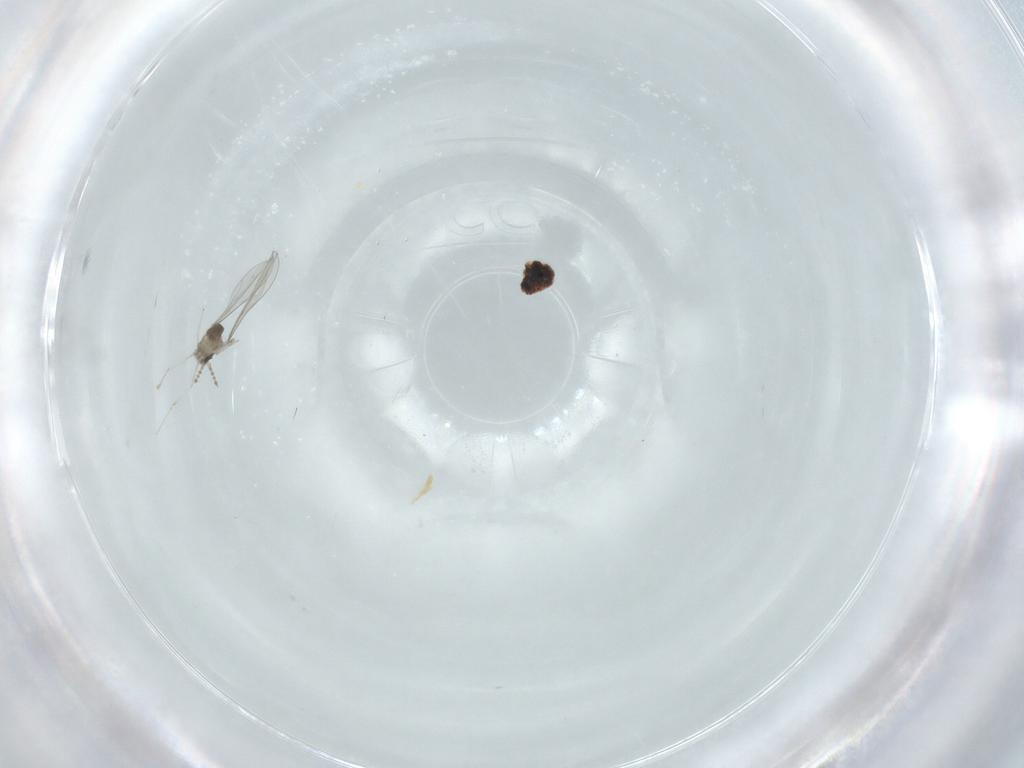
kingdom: Animalia
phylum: Arthropoda
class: Insecta
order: Diptera
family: Cecidomyiidae
